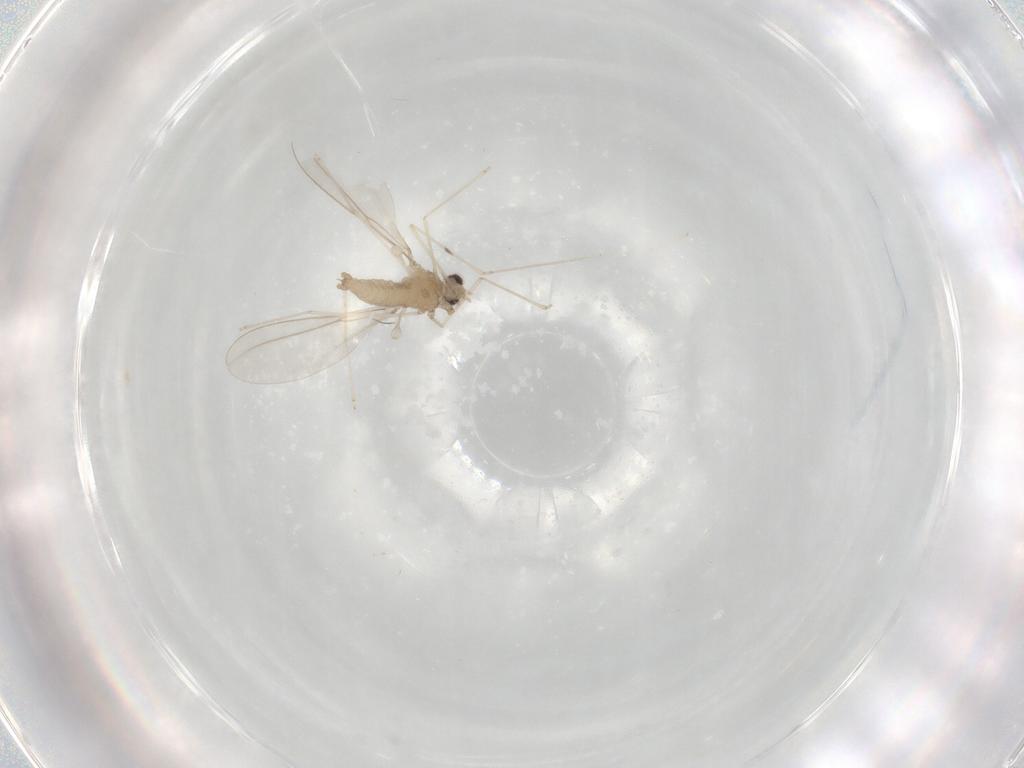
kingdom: Animalia
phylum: Arthropoda
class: Insecta
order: Diptera
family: Cecidomyiidae
